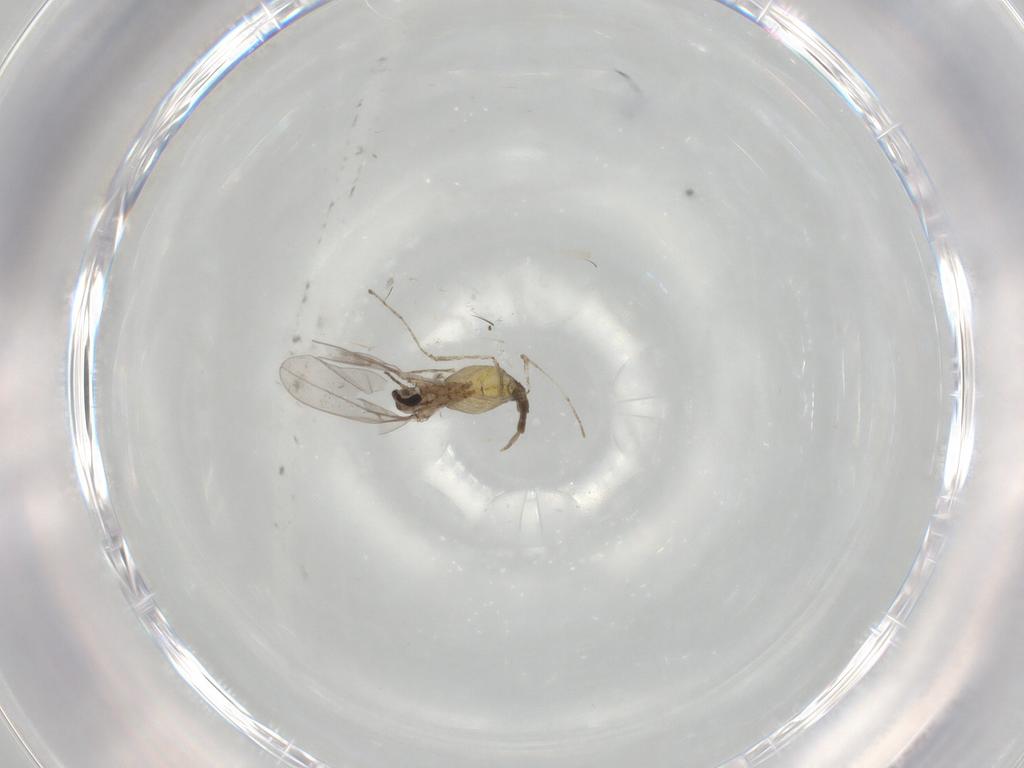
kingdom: Animalia
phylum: Arthropoda
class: Insecta
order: Diptera
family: Cecidomyiidae
